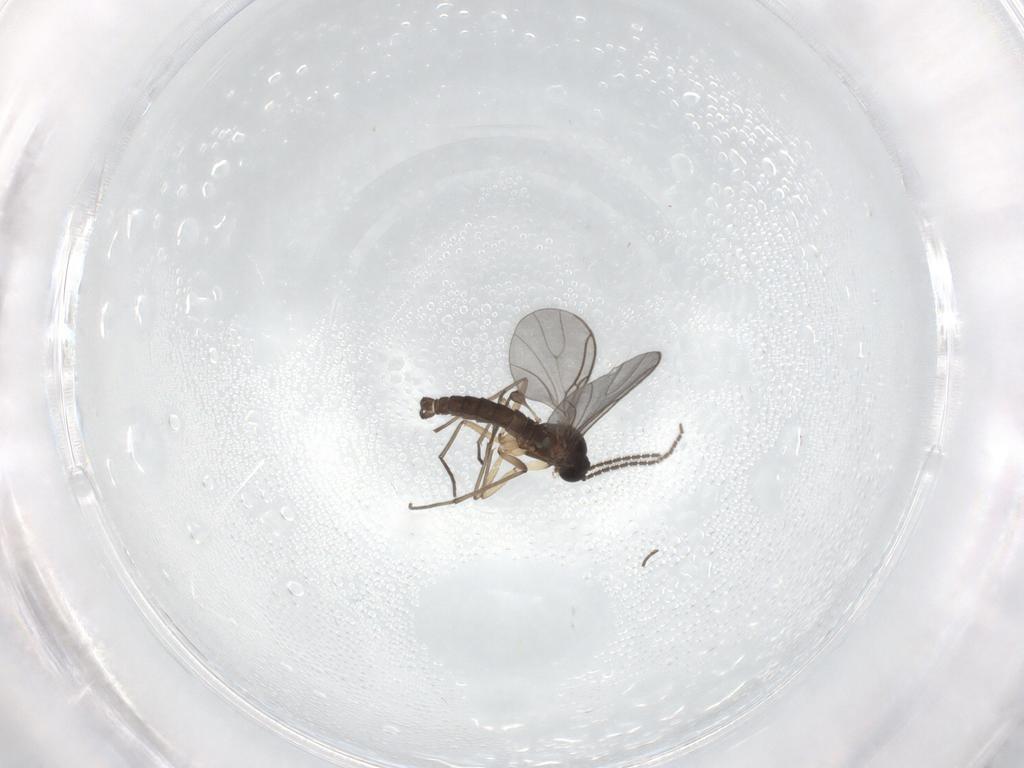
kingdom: Animalia
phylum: Arthropoda
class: Insecta
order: Diptera
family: Sciaridae
